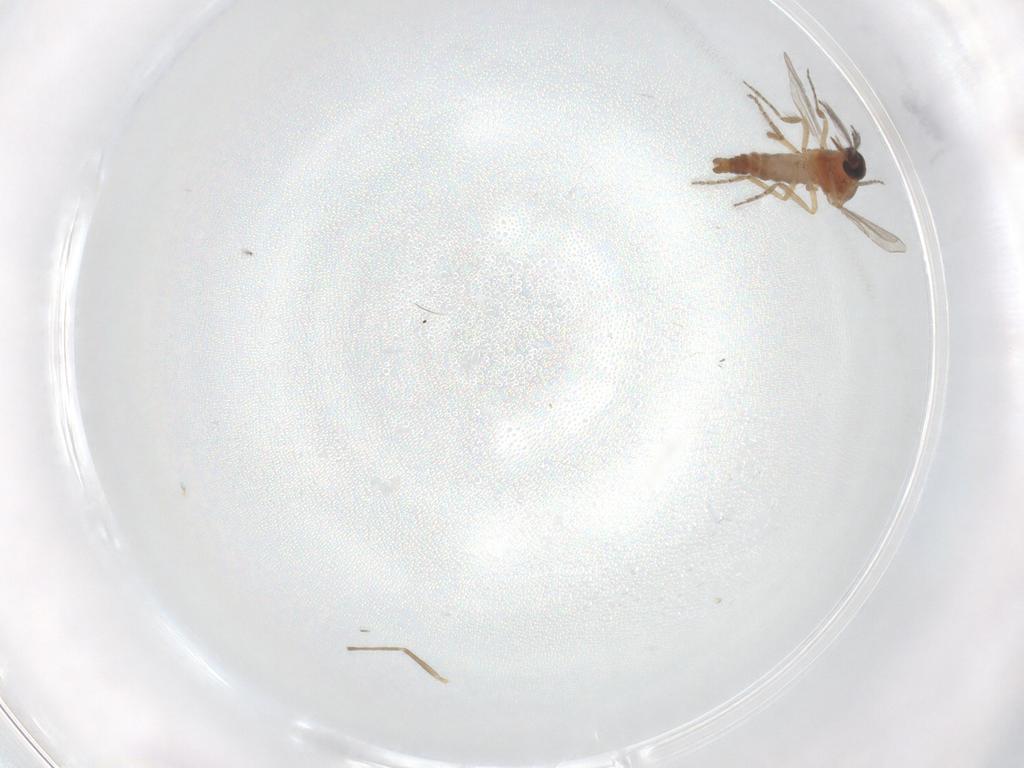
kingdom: Animalia
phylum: Arthropoda
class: Insecta
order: Diptera
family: Ceratopogonidae
